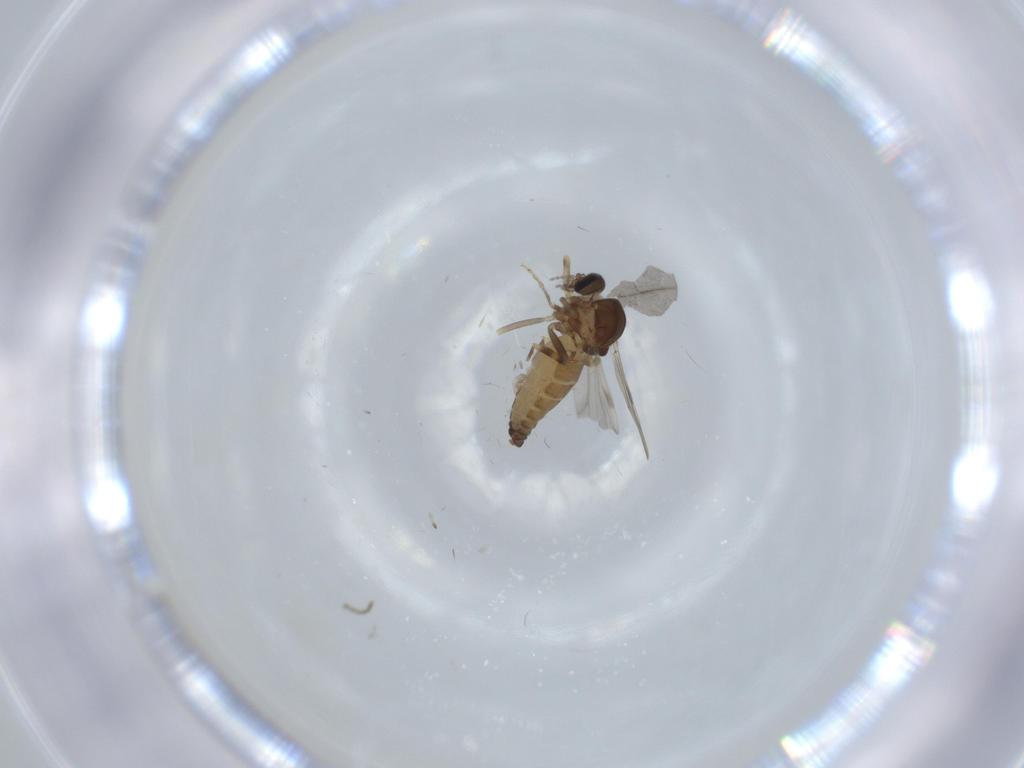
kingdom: Animalia
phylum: Arthropoda
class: Insecta
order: Diptera
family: Ceratopogonidae
